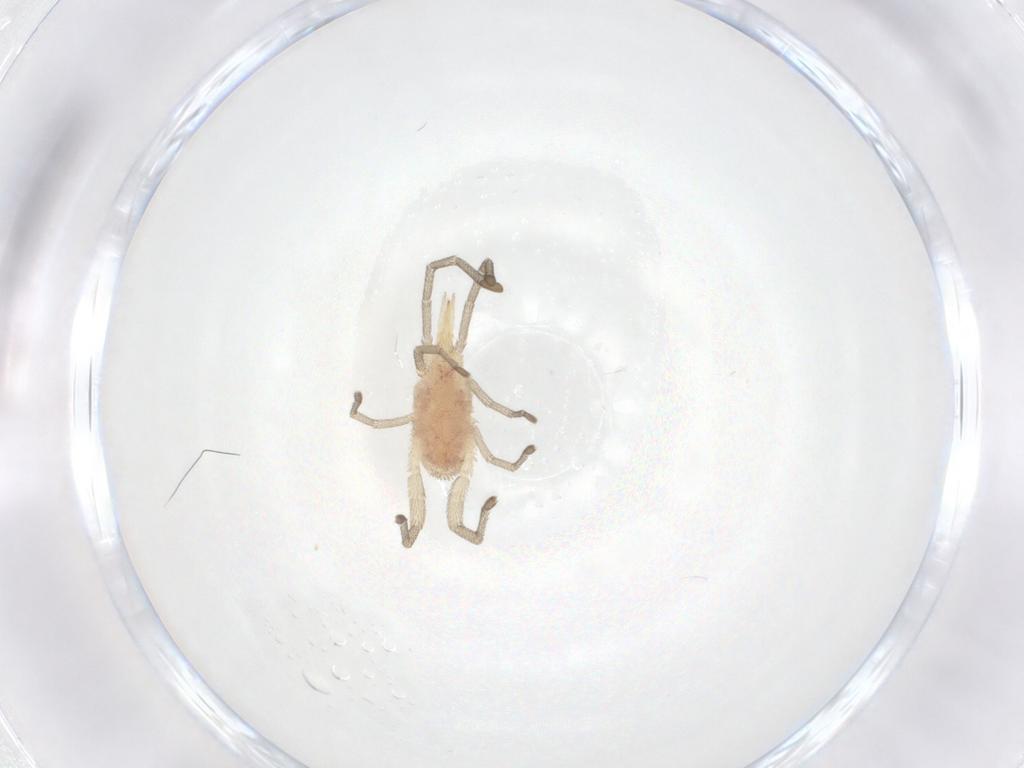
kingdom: Animalia
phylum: Arthropoda
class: Arachnida
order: Trombidiformes
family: Smarididae
